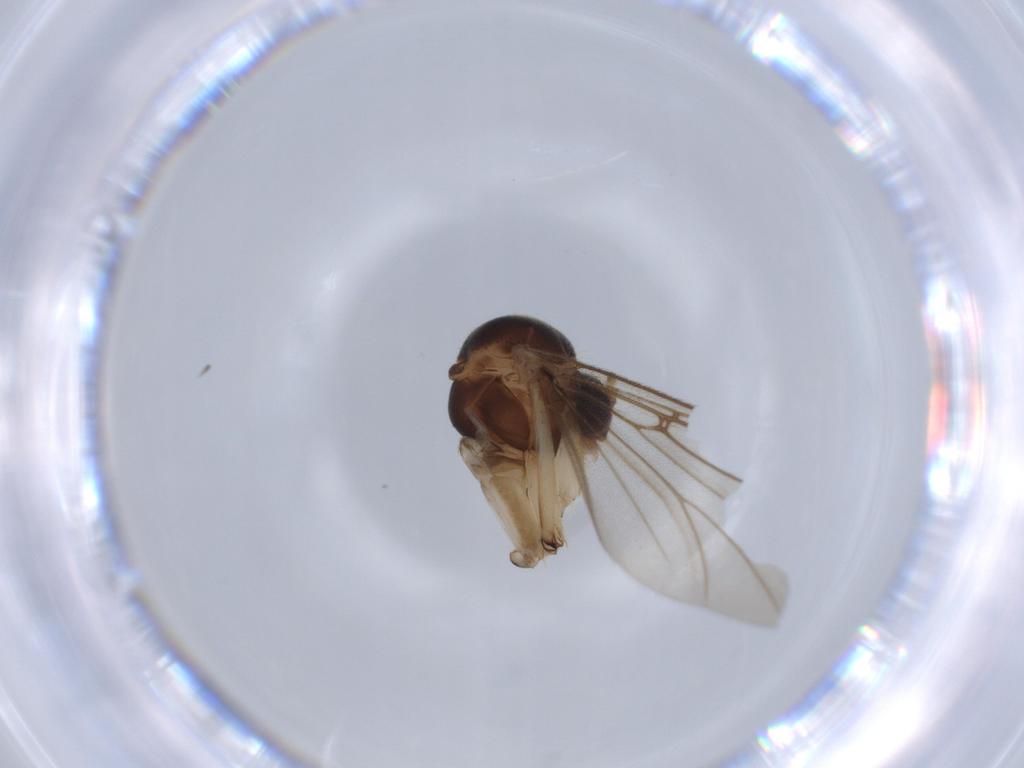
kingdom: Animalia
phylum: Arthropoda
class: Insecta
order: Diptera
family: Muscidae
